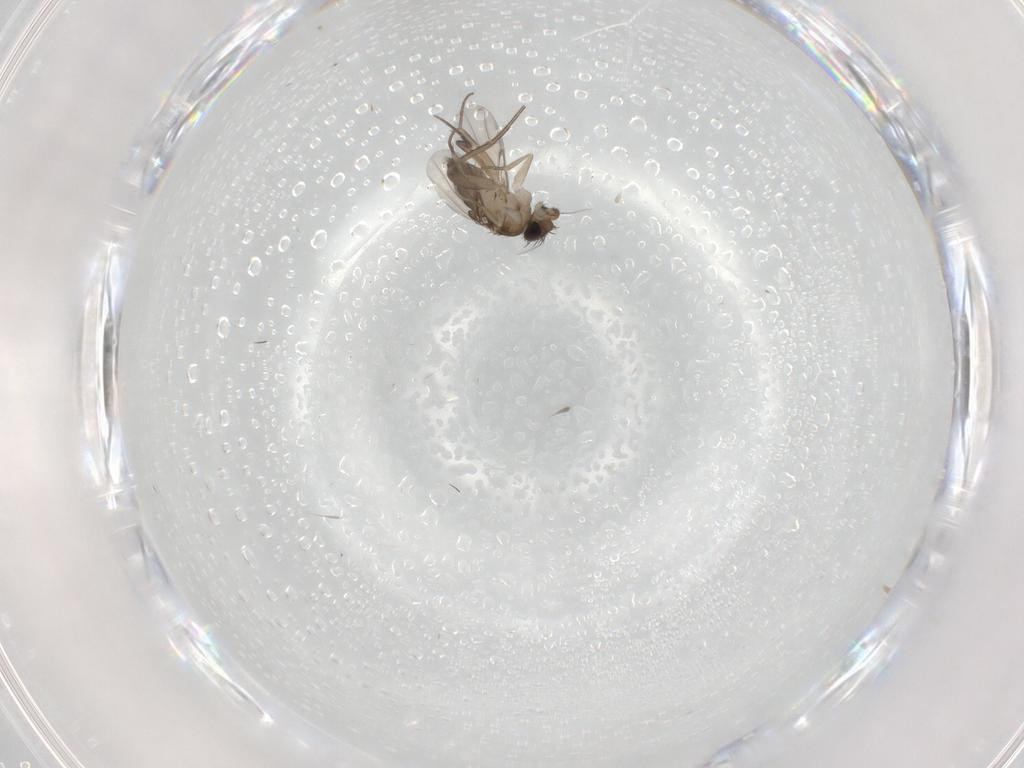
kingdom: Animalia
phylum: Arthropoda
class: Insecta
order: Diptera
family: Phoridae
